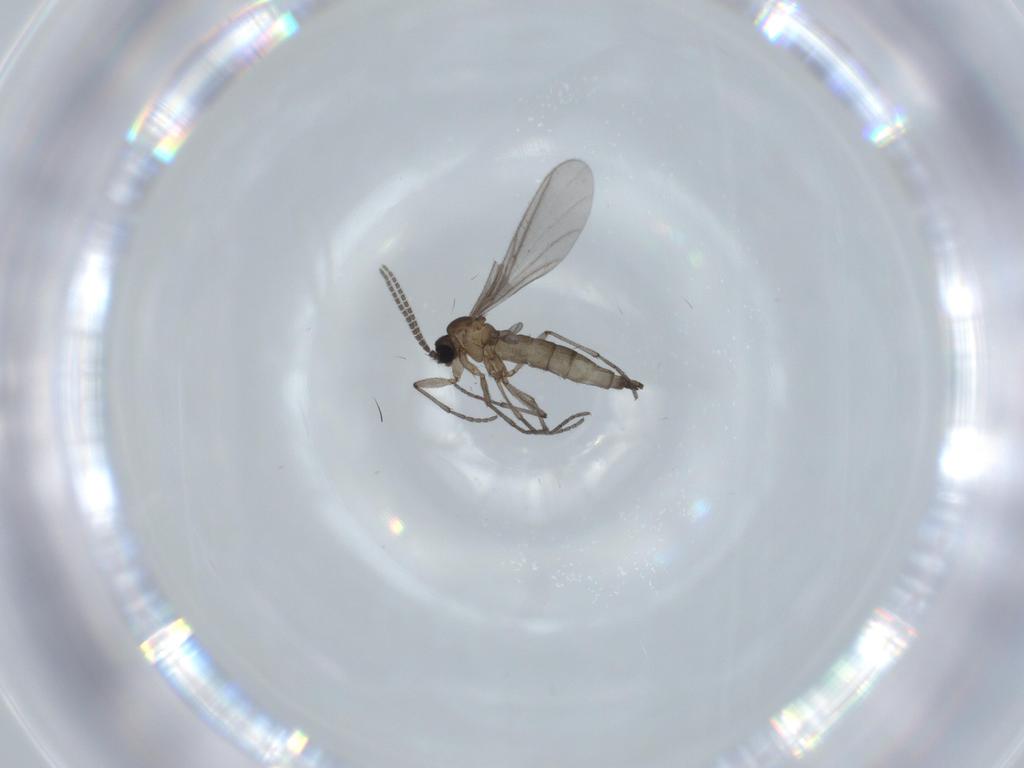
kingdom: Animalia
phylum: Arthropoda
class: Insecta
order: Diptera
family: Sciaridae
